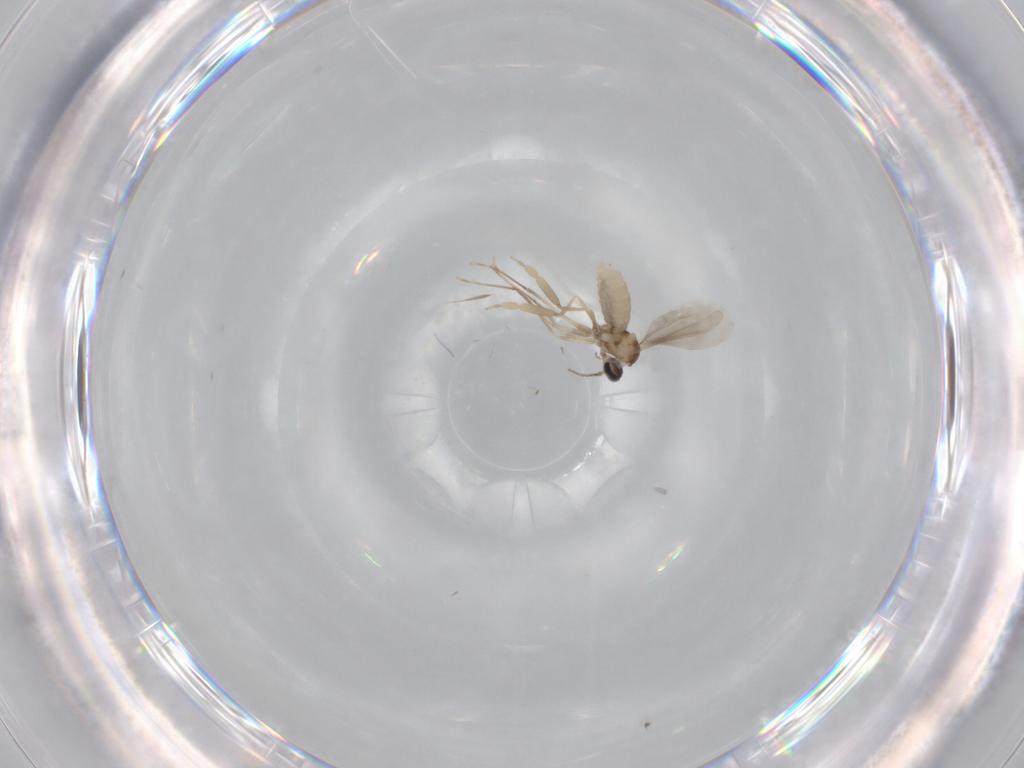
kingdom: Animalia
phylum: Arthropoda
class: Insecta
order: Diptera
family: Cecidomyiidae
